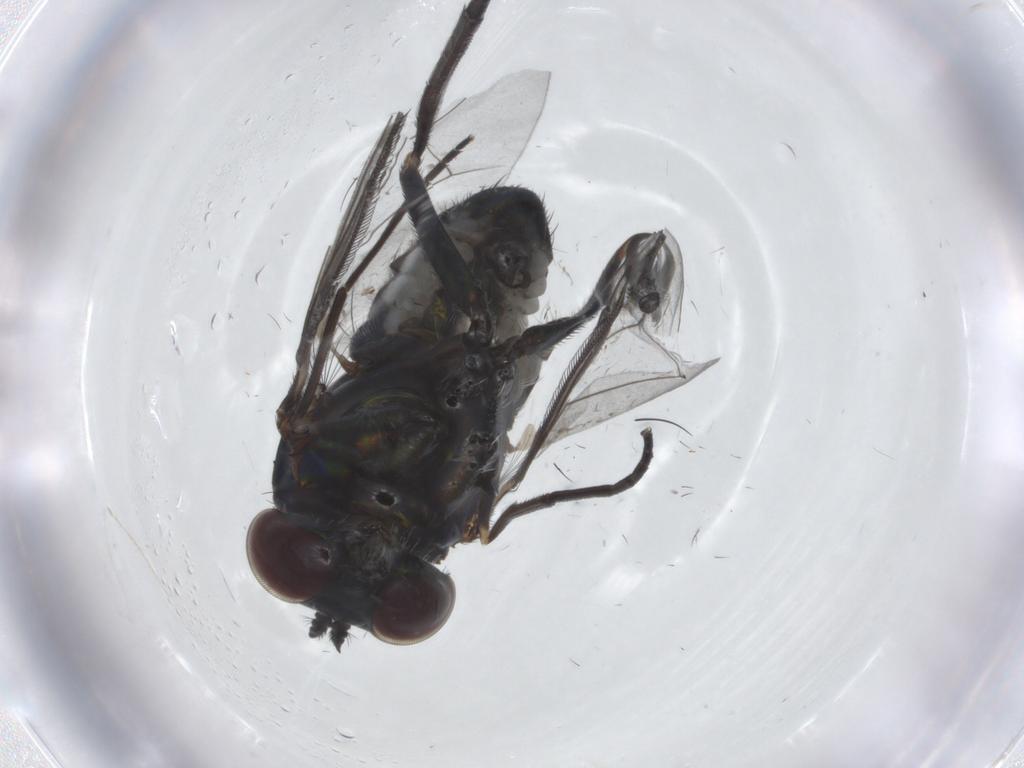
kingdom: Animalia
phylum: Arthropoda
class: Insecta
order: Diptera
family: Dolichopodidae
